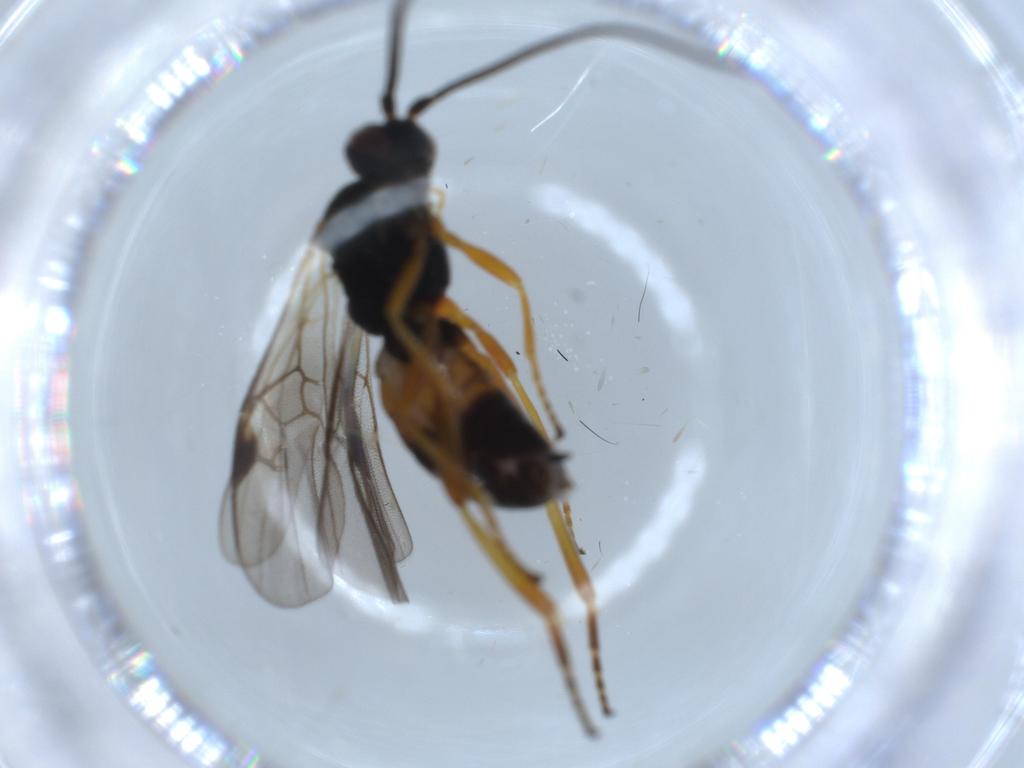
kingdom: Animalia
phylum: Arthropoda
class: Insecta
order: Hymenoptera
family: Braconidae
